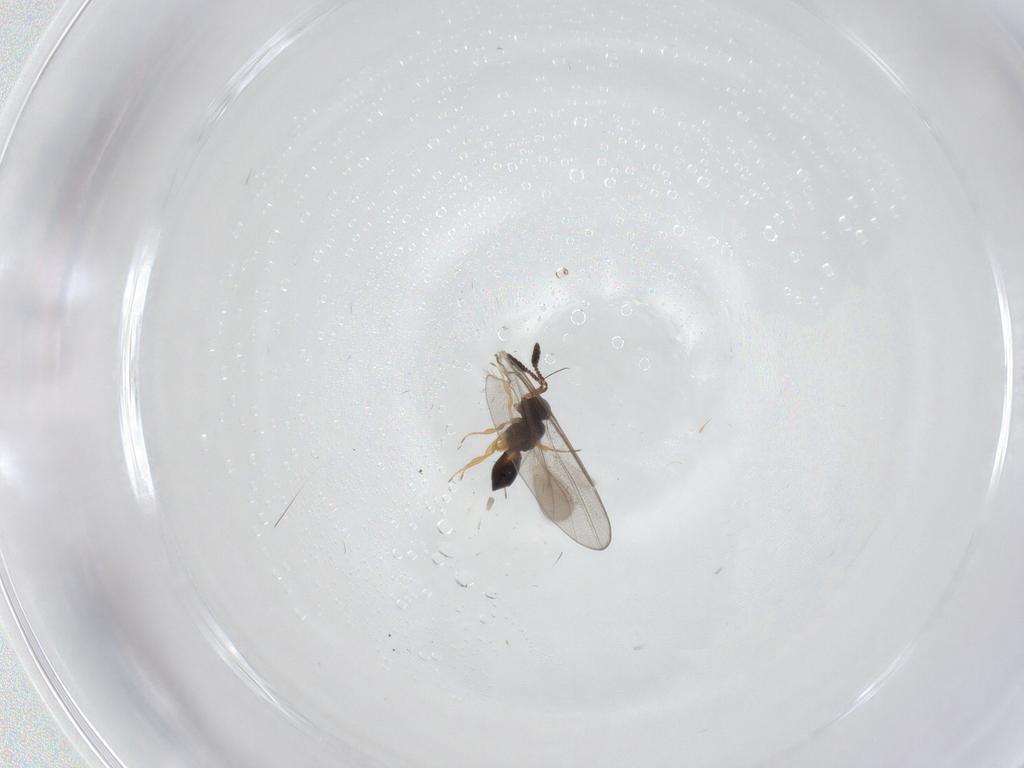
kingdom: Animalia
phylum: Arthropoda
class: Insecta
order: Hymenoptera
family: Scelionidae
